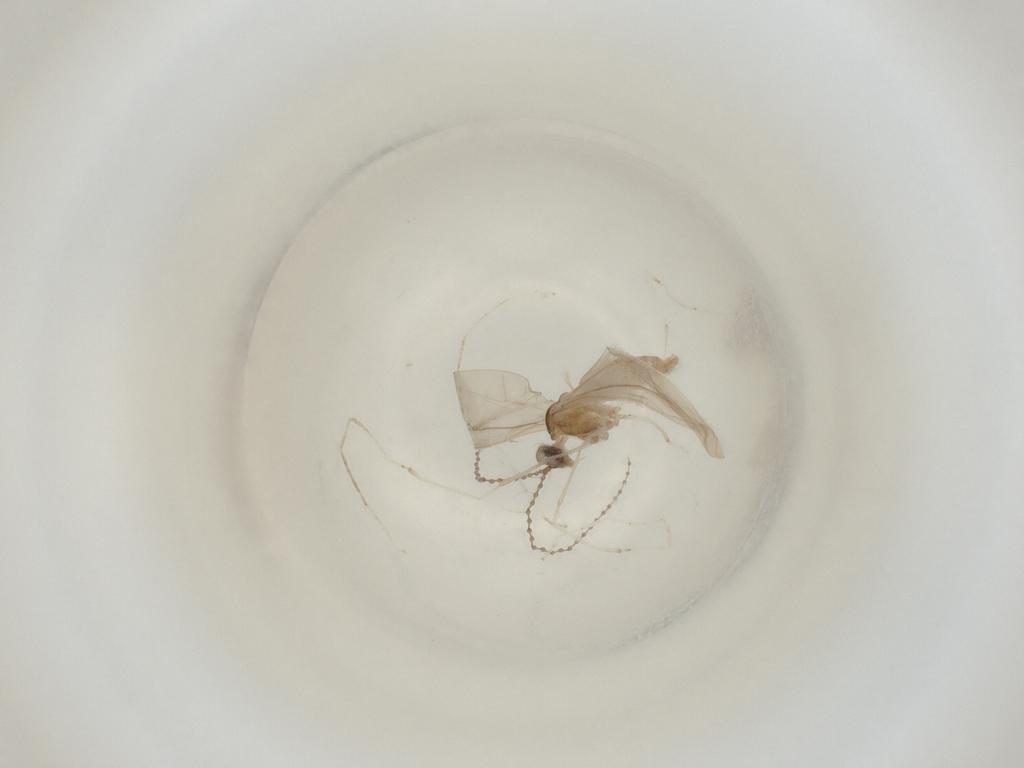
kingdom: Animalia
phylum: Arthropoda
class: Insecta
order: Diptera
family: Cecidomyiidae
